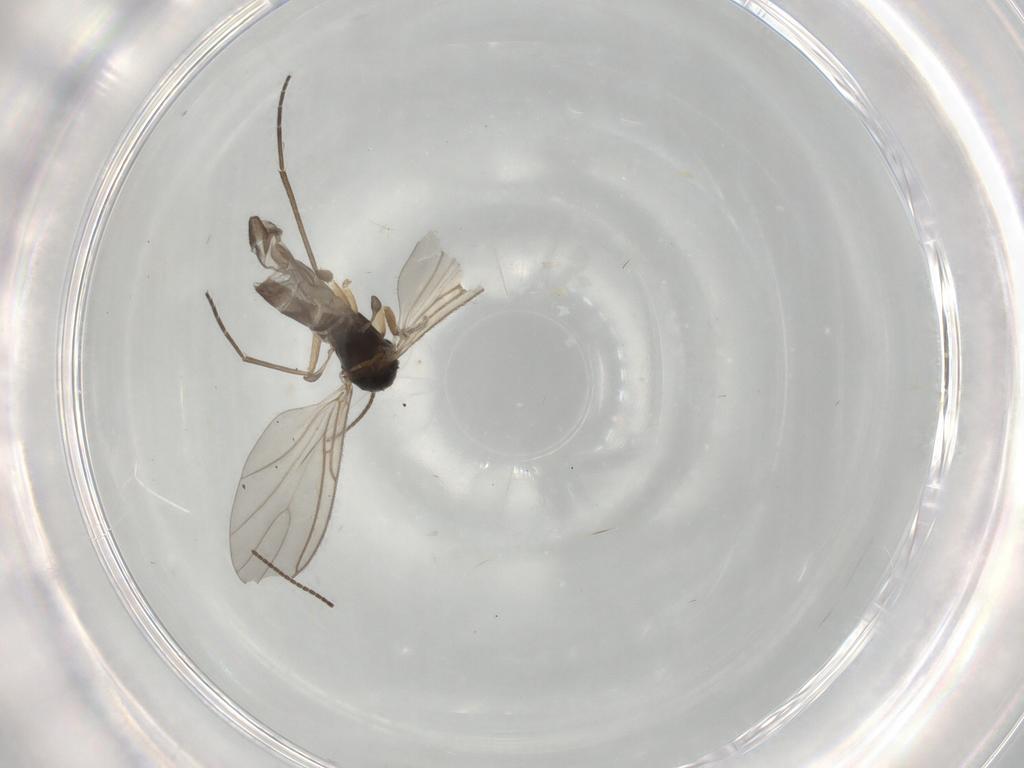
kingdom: Animalia
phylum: Arthropoda
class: Insecta
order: Diptera
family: Sciaridae
